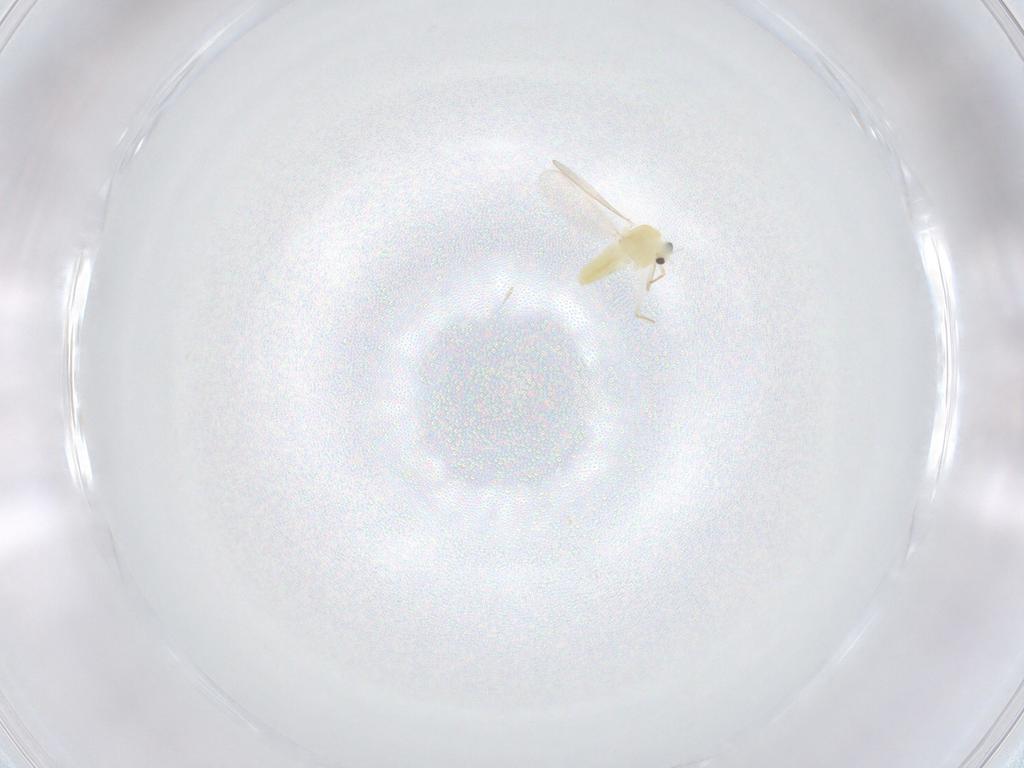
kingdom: Animalia
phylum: Arthropoda
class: Insecta
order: Diptera
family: Chironomidae
